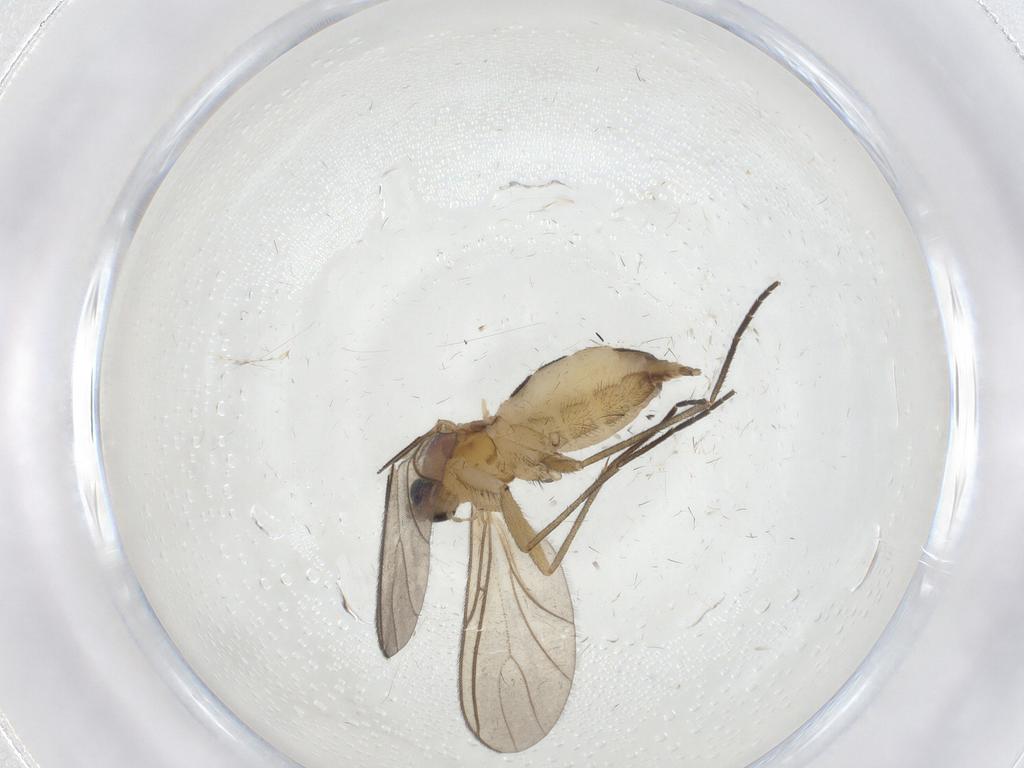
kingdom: Animalia
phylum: Arthropoda
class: Insecta
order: Diptera
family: Sciaridae
